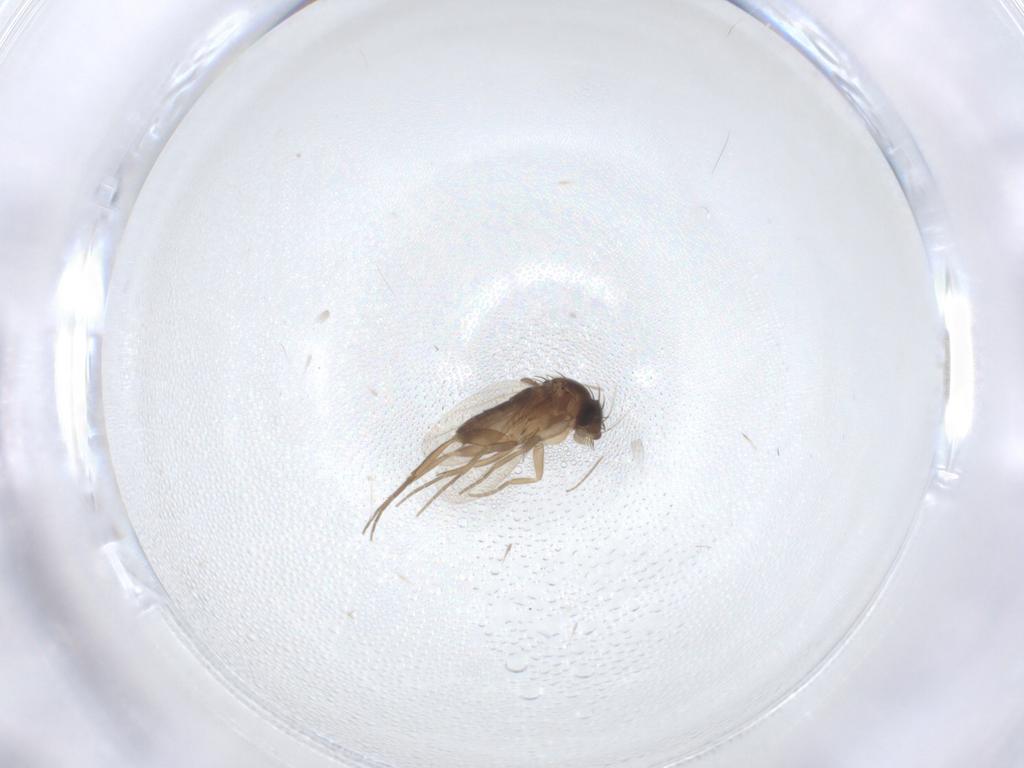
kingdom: Animalia
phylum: Arthropoda
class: Insecta
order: Diptera
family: Phoridae
